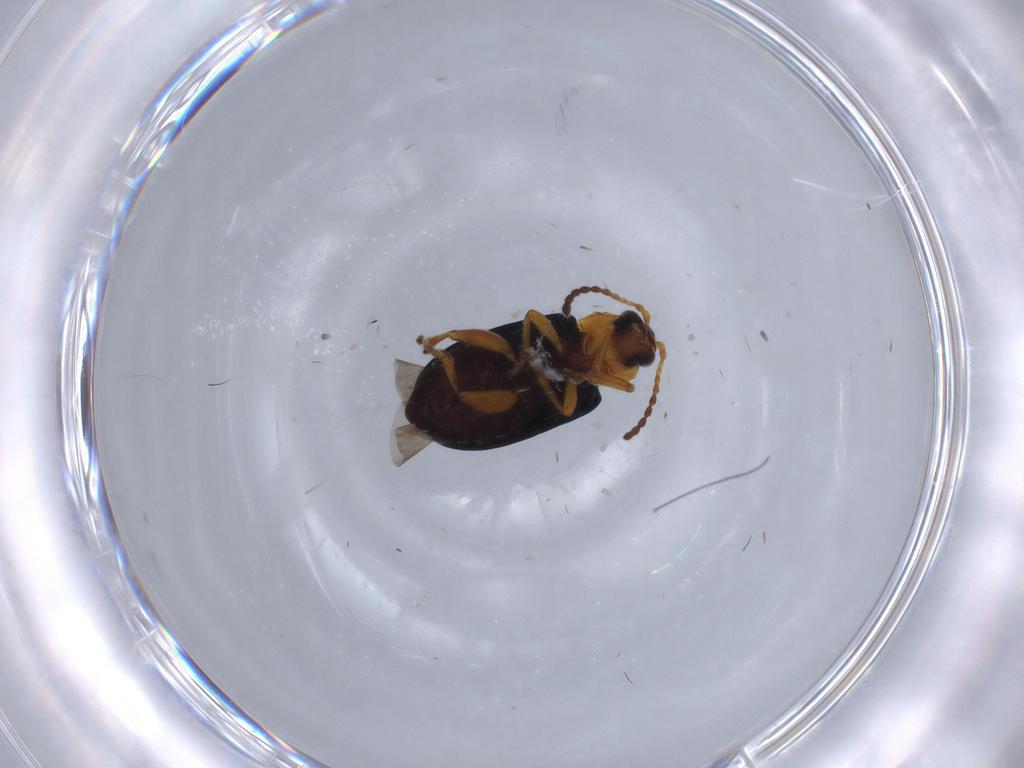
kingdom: Animalia
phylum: Arthropoda
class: Insecta
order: Coleoptera
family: Chrysomelidae
